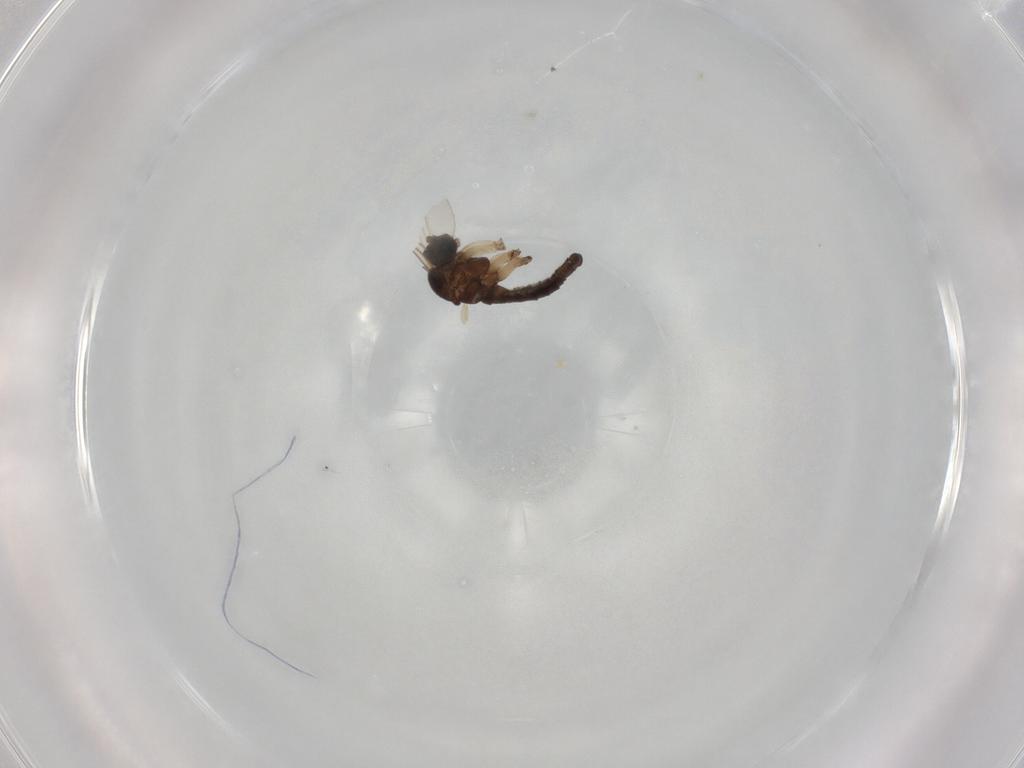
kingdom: Animalia
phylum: Arthropoda
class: Insecta
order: Diptera
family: Sciaridae
